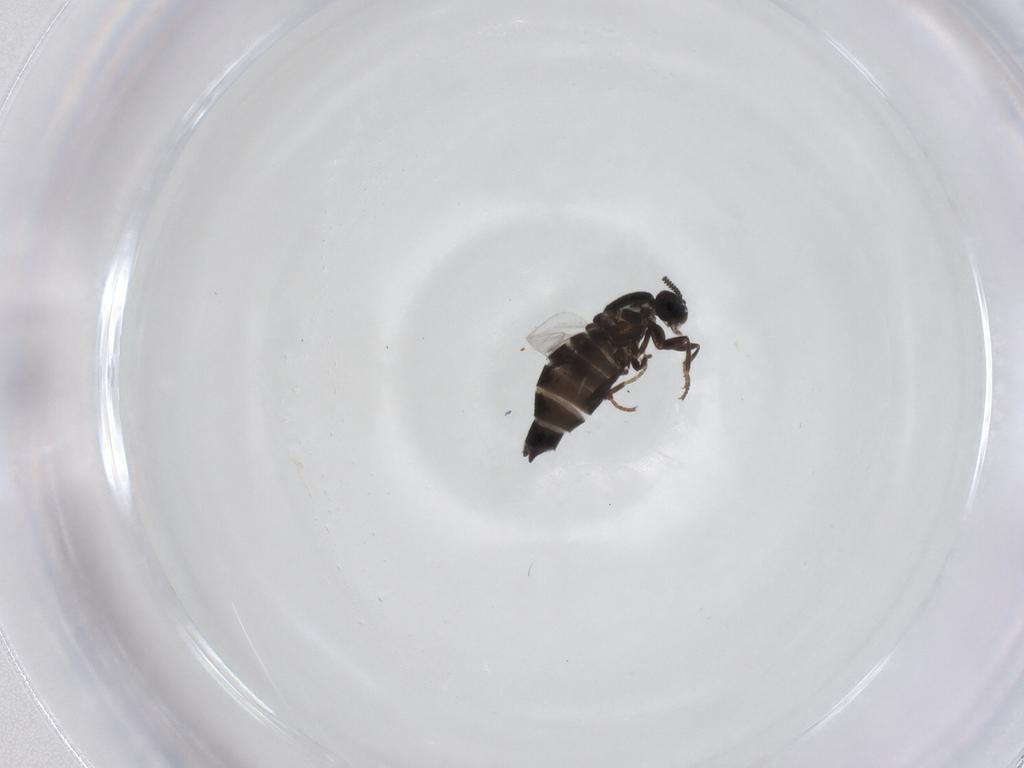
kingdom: Animalia
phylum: Arthropoda
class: Insecta
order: Diptera
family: Scatopsidae
